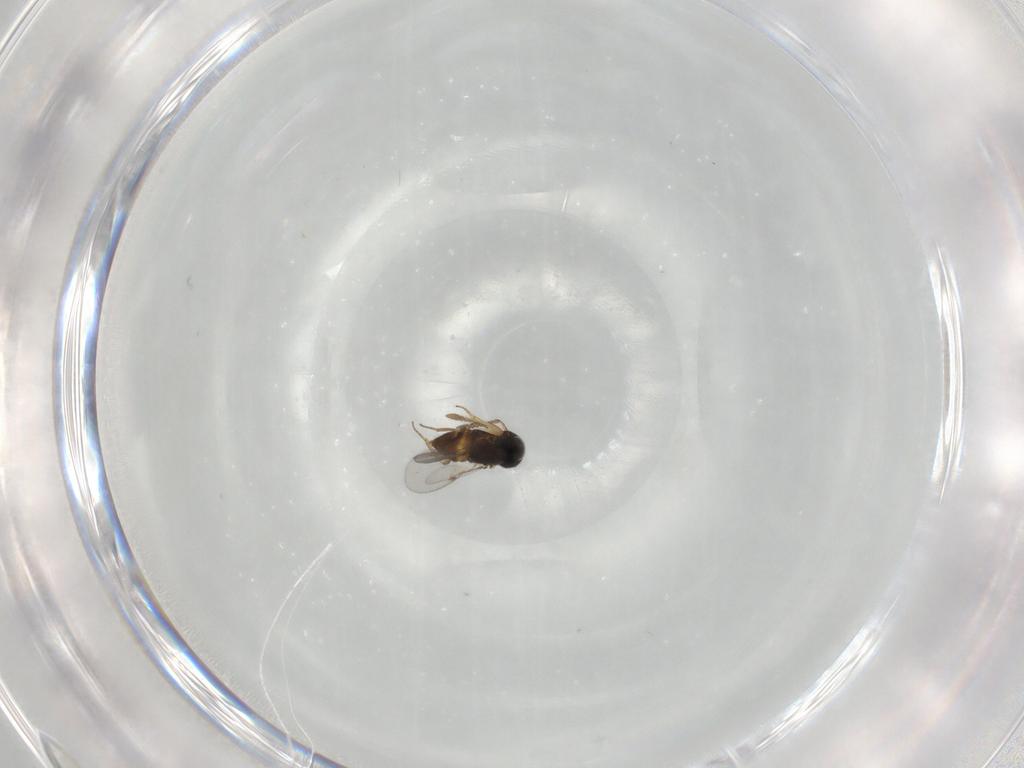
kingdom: Animalia
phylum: Arthropoda
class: Insecta
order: Hymenoptera
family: Encyrtidae
